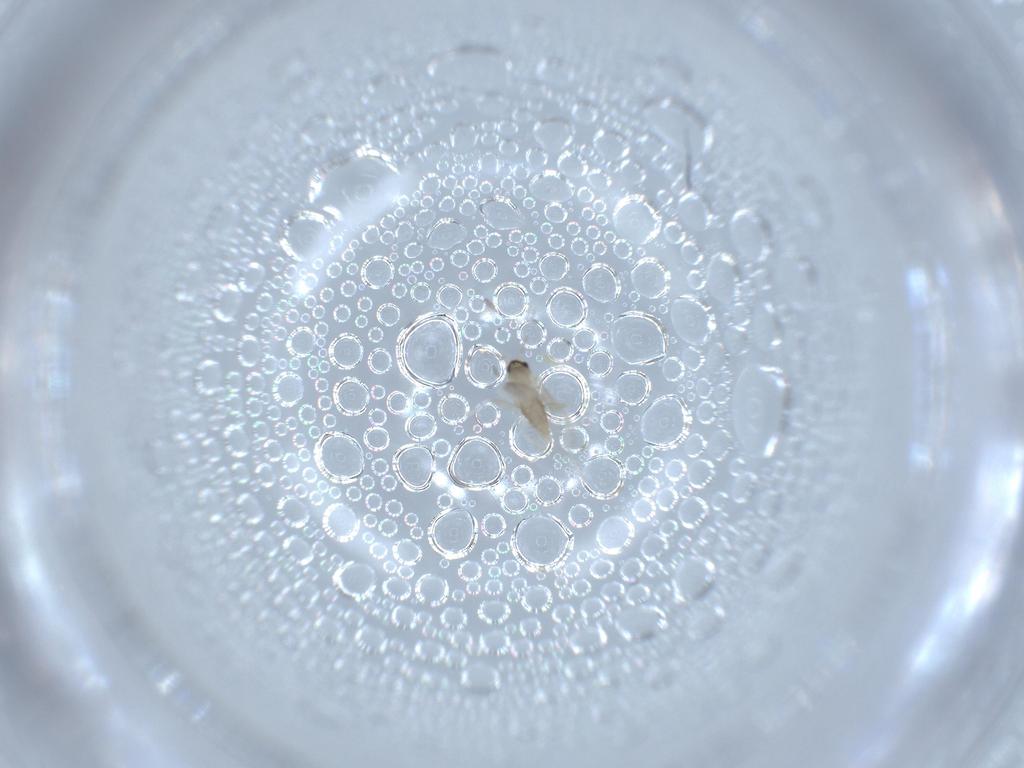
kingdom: Animalia
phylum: Arthropoda
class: Insecta
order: Diptera
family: Cecidomyiidae
